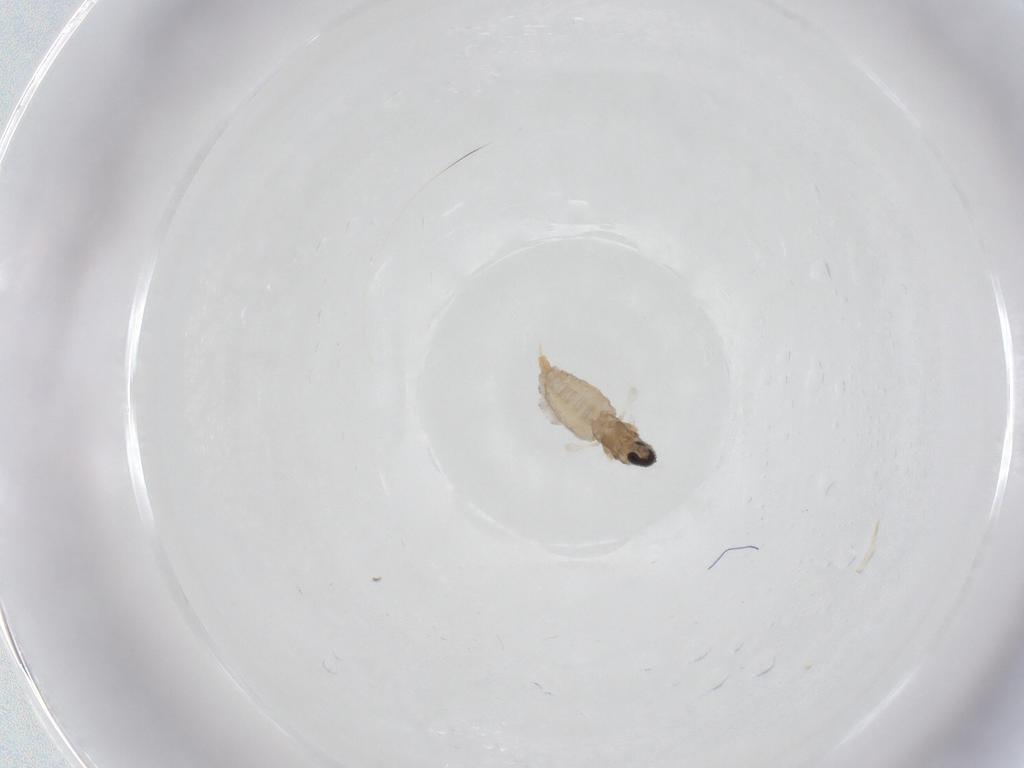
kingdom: Animalia
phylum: Arthropoda
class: Insecta
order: Diptera
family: Cecidomyiidae
